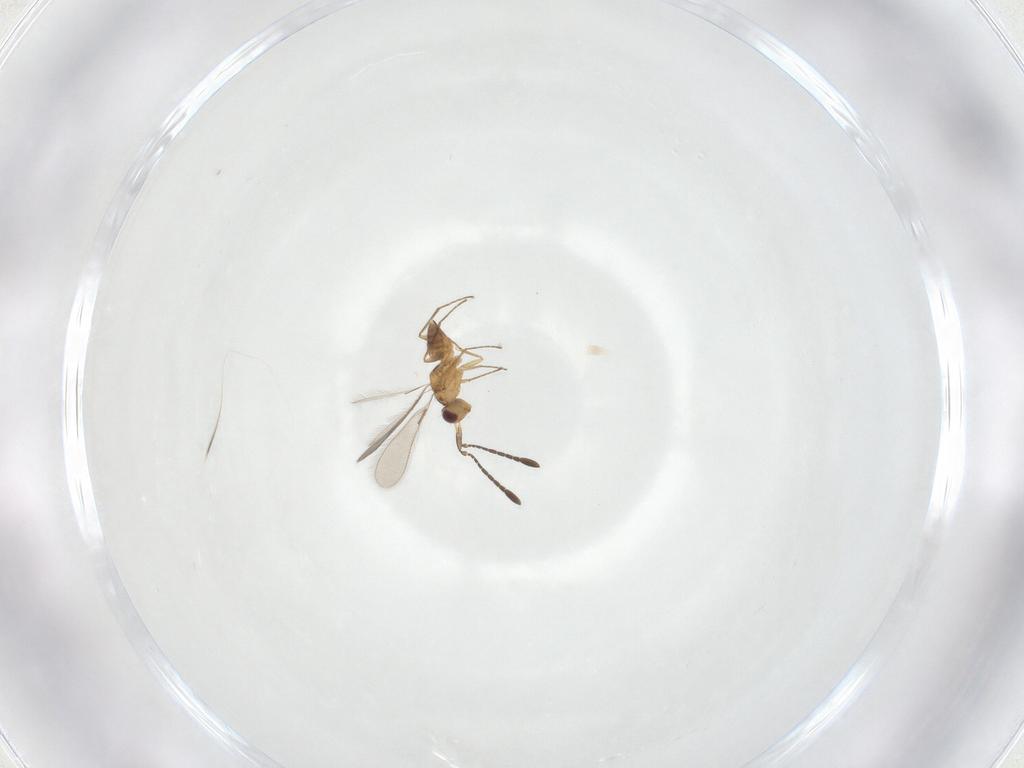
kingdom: Animalia
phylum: Arthropoda
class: Insecta
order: Hymenoptera
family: Mymaridae
